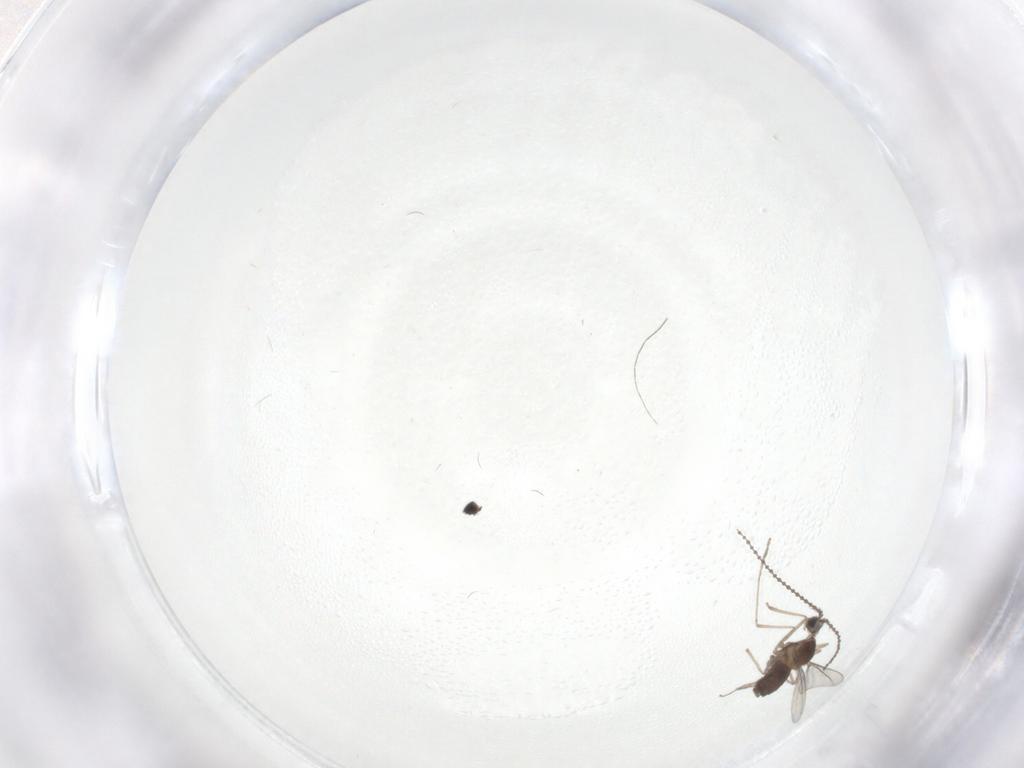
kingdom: Animalia
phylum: Arthropoda
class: Insecta
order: Diptera
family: Cecidomyiidae
